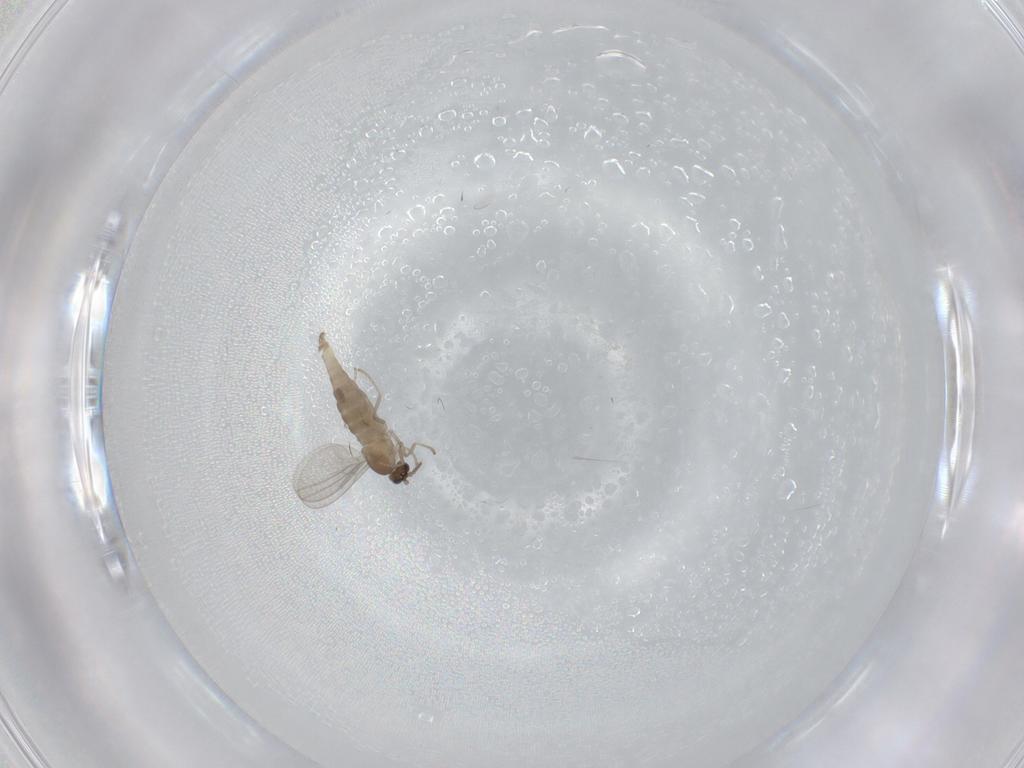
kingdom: Animalia
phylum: Arthropoda
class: Insecta
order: Diptera
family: Cecidomyiidae
